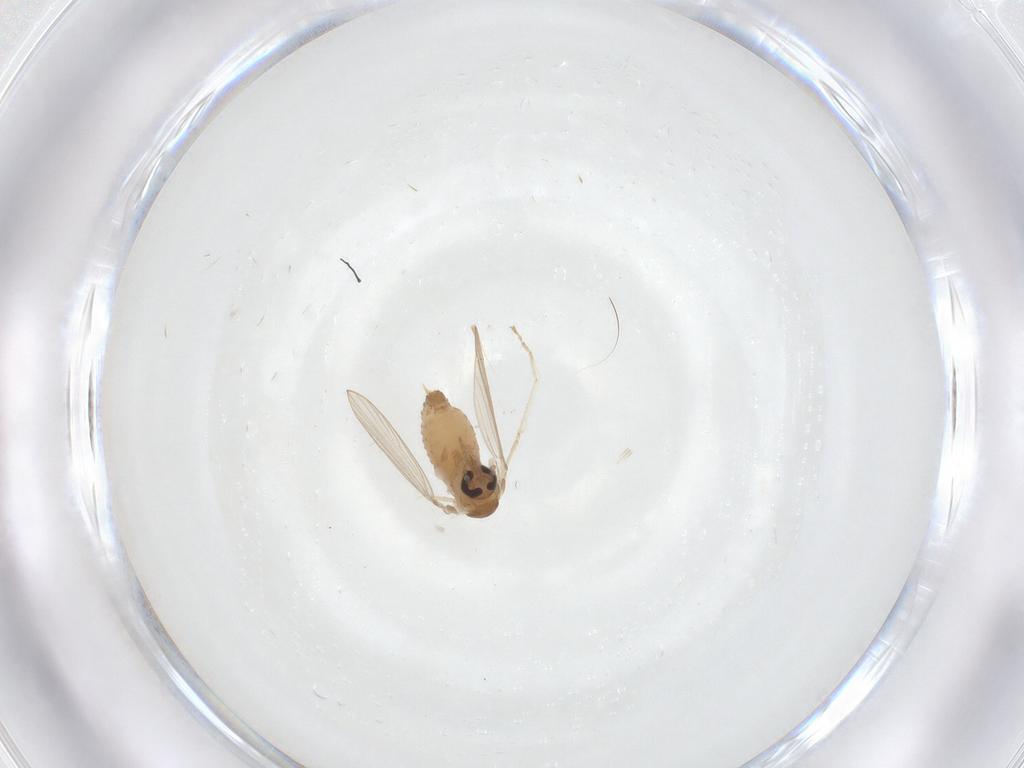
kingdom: Animalia
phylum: Arthropoda
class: Insecta
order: Diptera
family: Psychodidae
